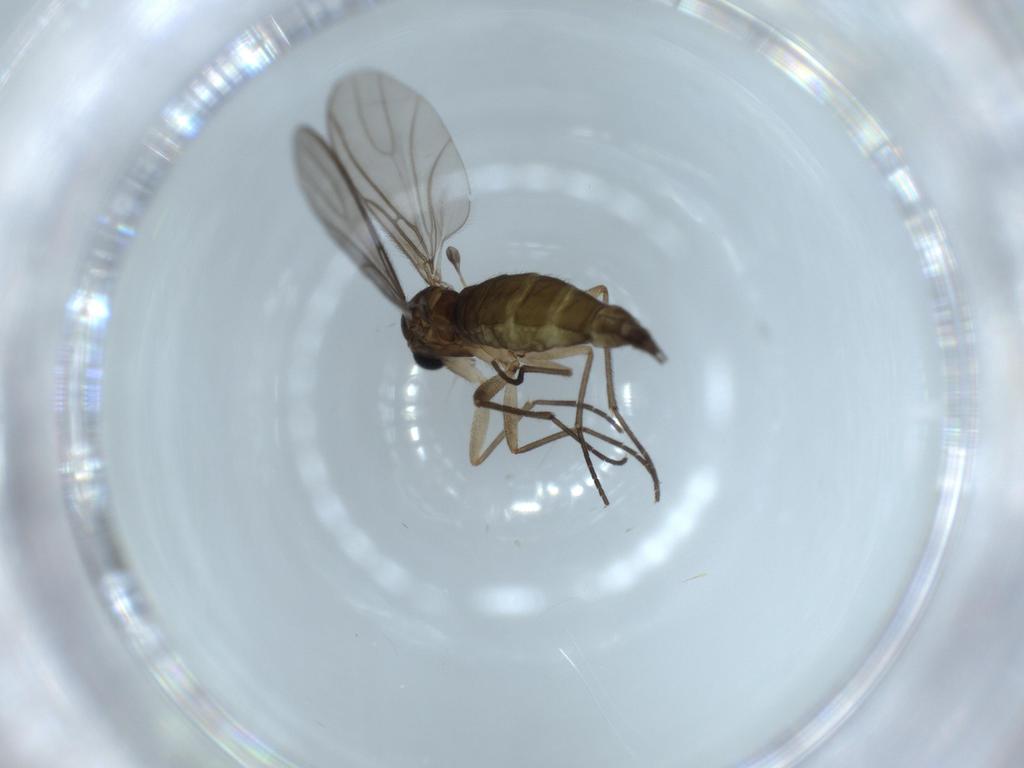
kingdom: Animalia
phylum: Arthropoda
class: Insecta
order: Diptera
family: Sciaridae
